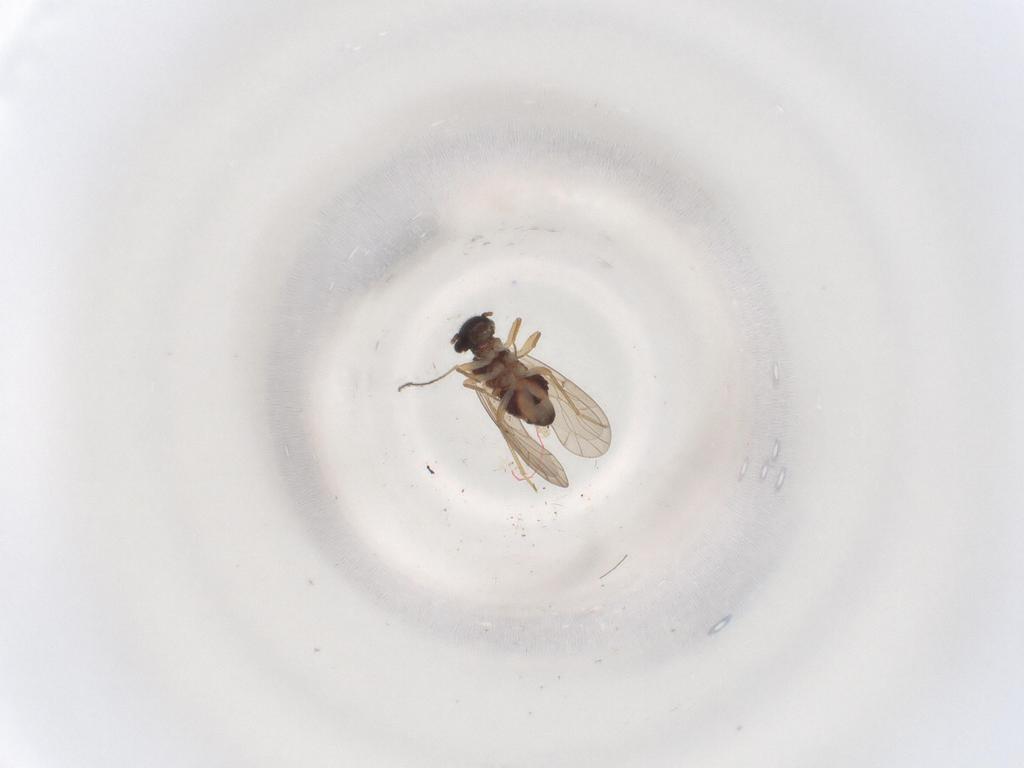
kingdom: Animalia
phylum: Arthropoda
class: Insecta
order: Psocodea
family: Ectopsocidae
